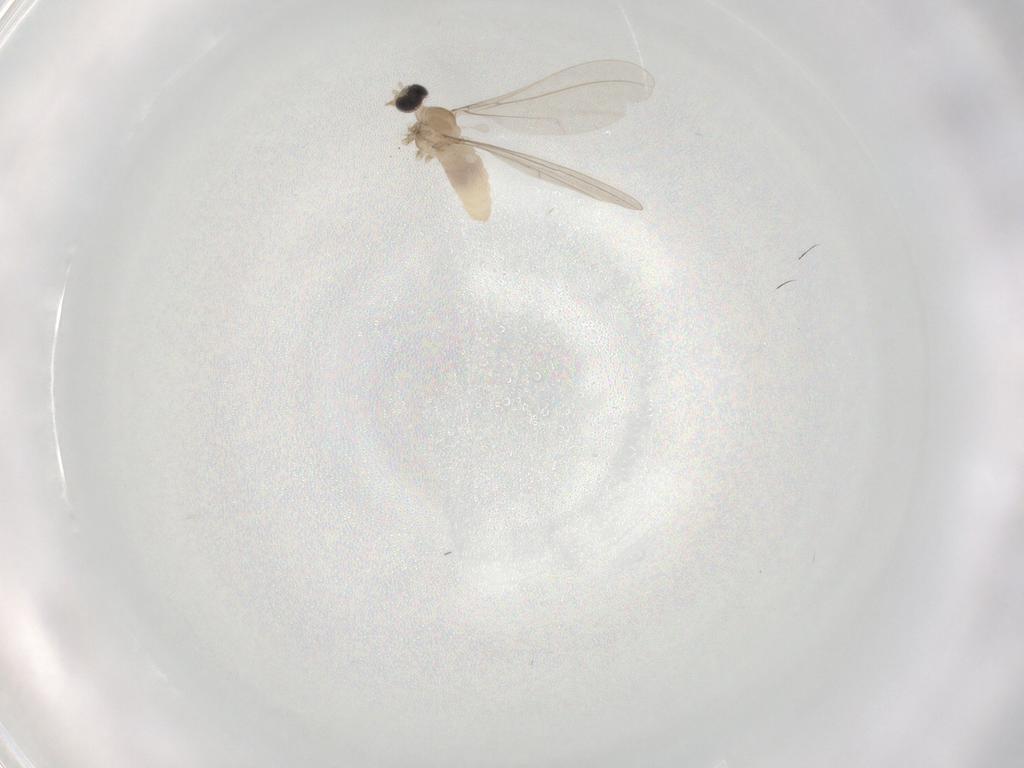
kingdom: Animalia
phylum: Arthropoda
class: Insecta
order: Diptera
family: Cecidomyiidae
